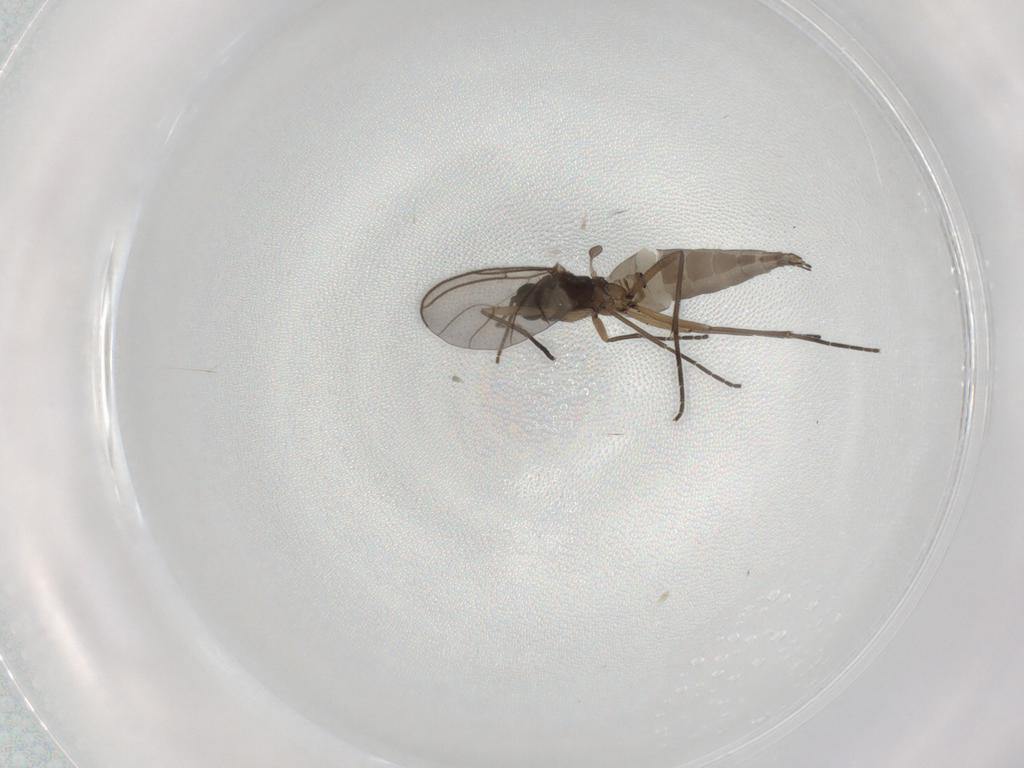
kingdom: Animalia
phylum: Arthropoda
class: Insecta
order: Diptera
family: Sciaridae
